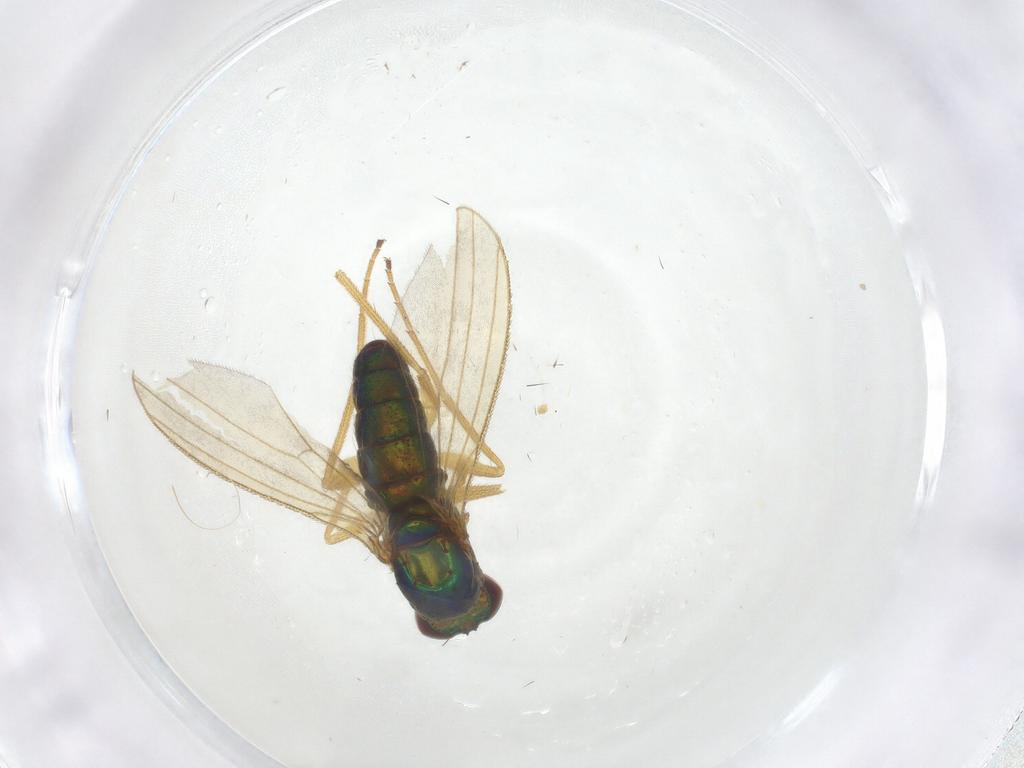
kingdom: Animalia
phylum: Arthropoda
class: Insecta
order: Diptera
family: Dolichopodidae
